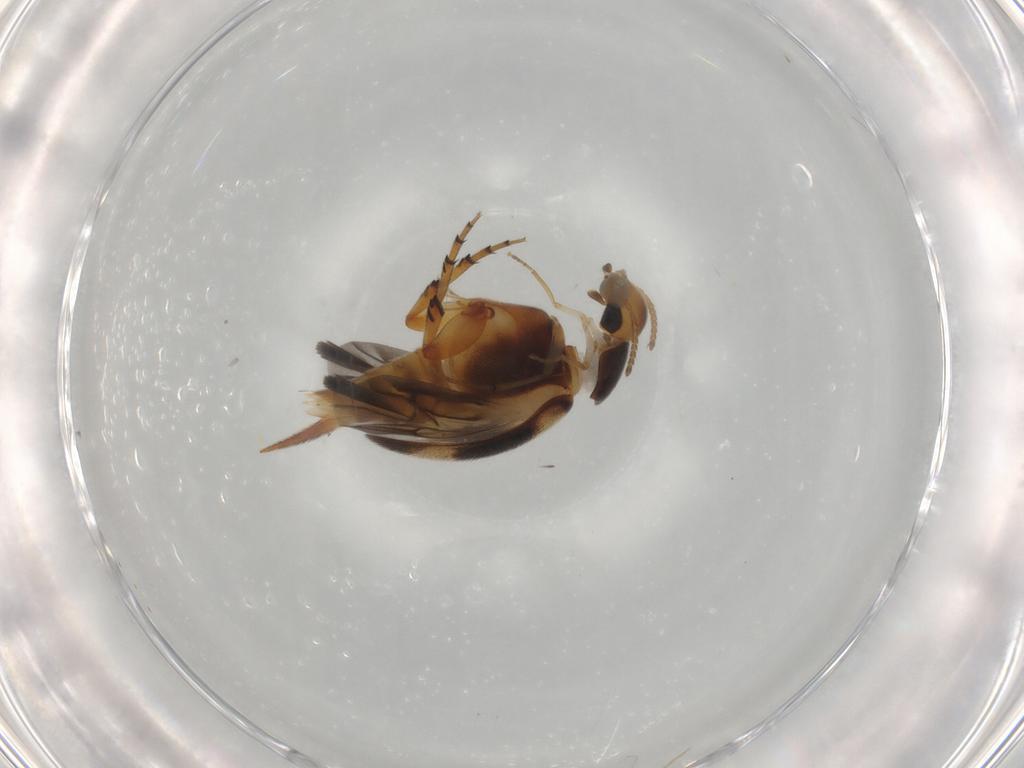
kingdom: Animalia
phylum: Arthropoda
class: Insecta
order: Coleoptera
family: Mordellidae
